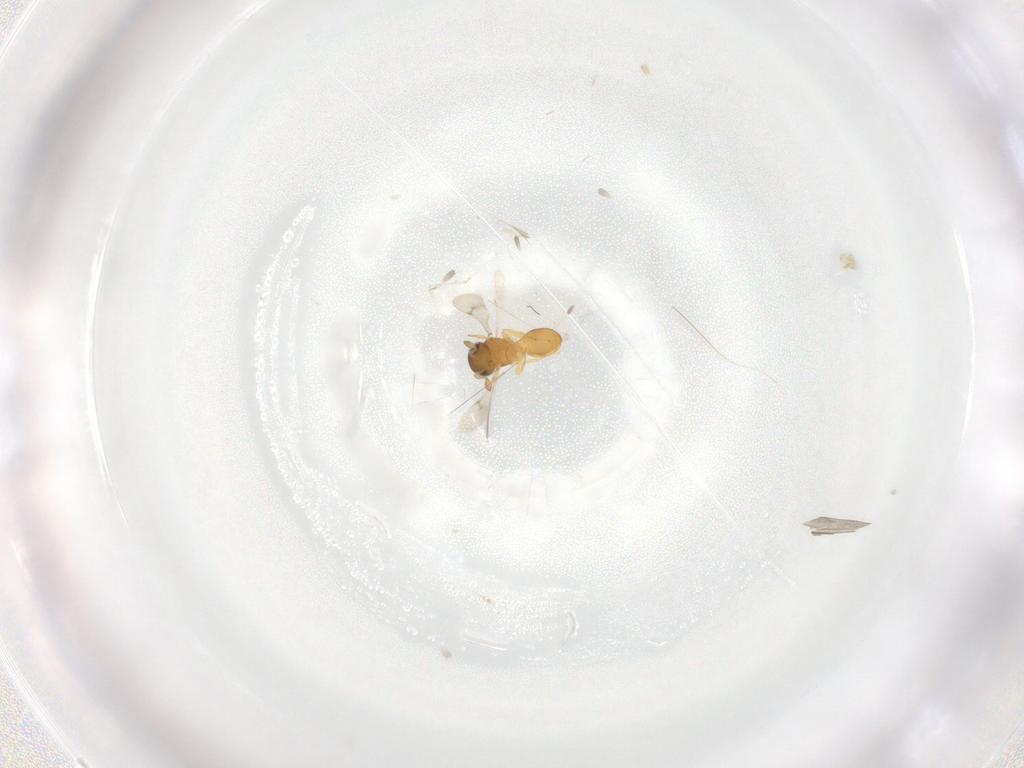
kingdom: Animalia
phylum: Arthropoda
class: Insecta
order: Hymenoptera
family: Scelionidae
